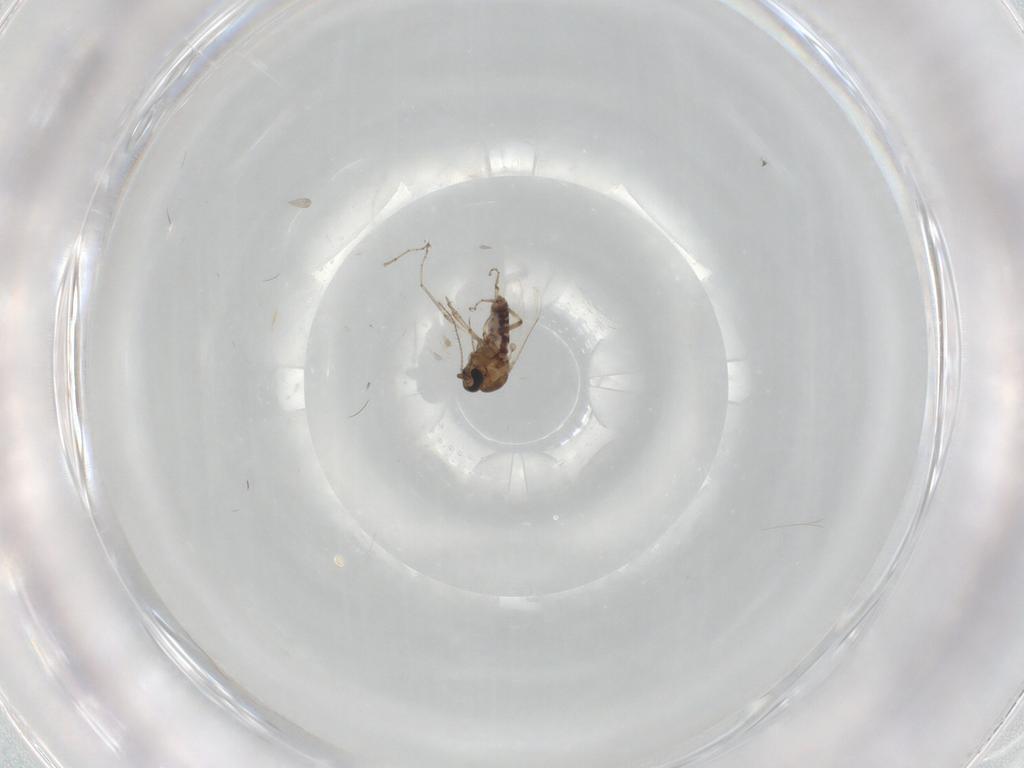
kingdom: Animalia
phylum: Arthropoda
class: Insecta
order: Diptera
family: Ceratopogonidae
